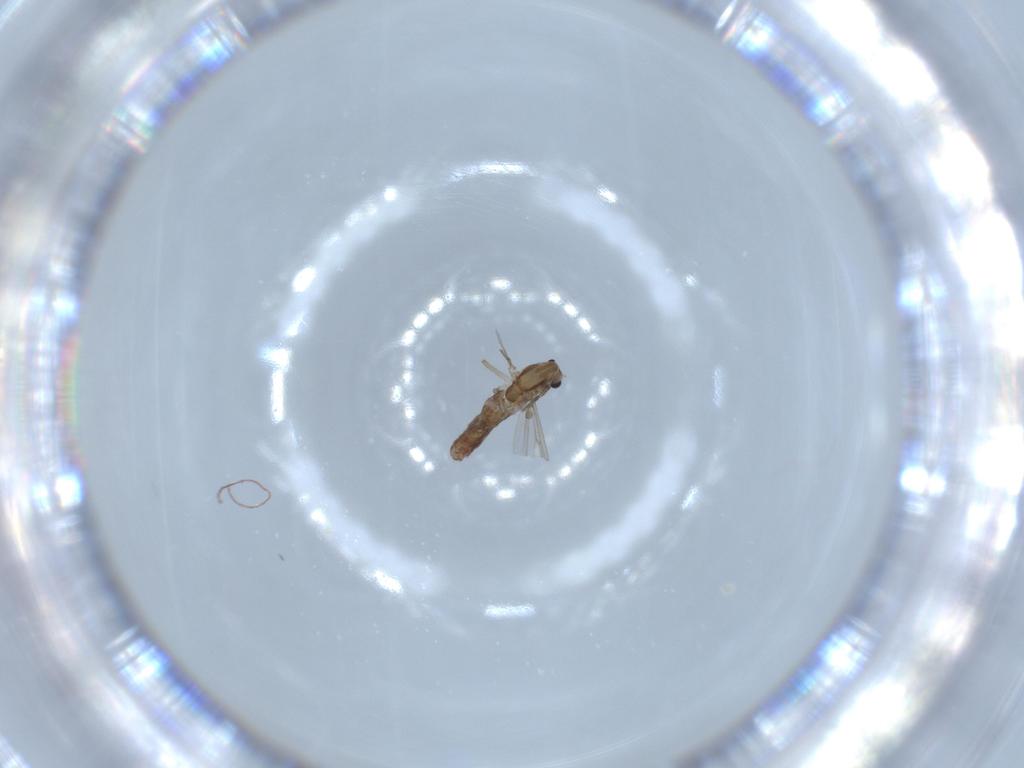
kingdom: Animalia
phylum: Arthropoda
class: Insecta
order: Diptera
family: Chironomidae
